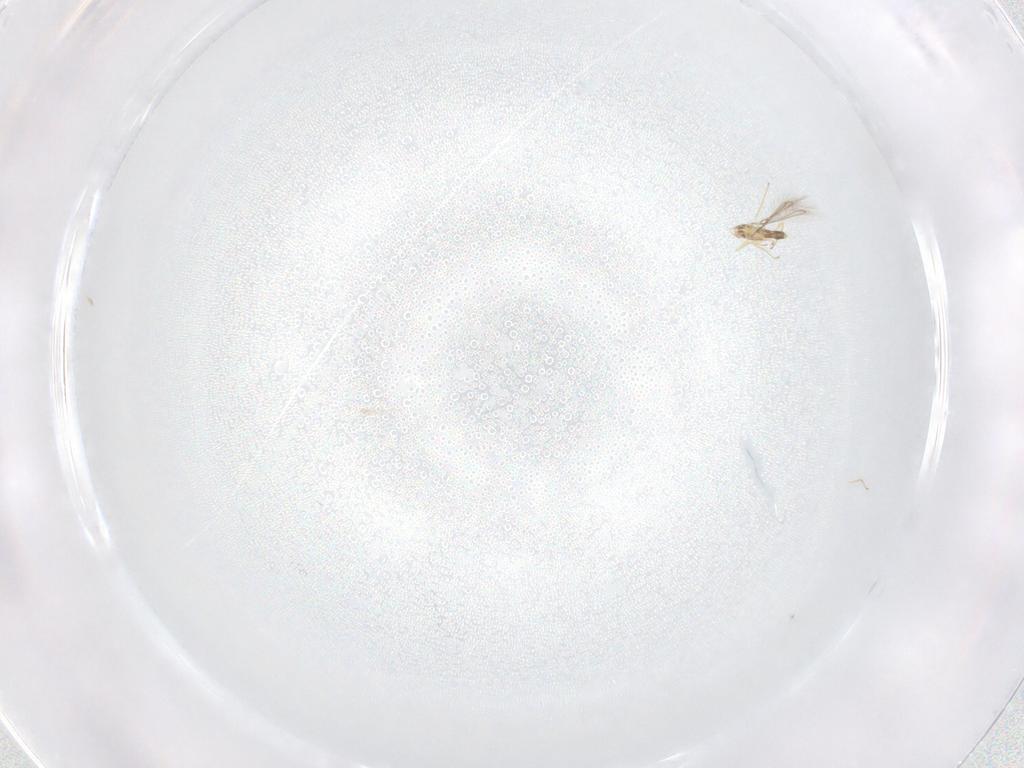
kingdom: Animalia
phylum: Arthropoda
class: Insecta
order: Hymenoptera
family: Mymaridae
